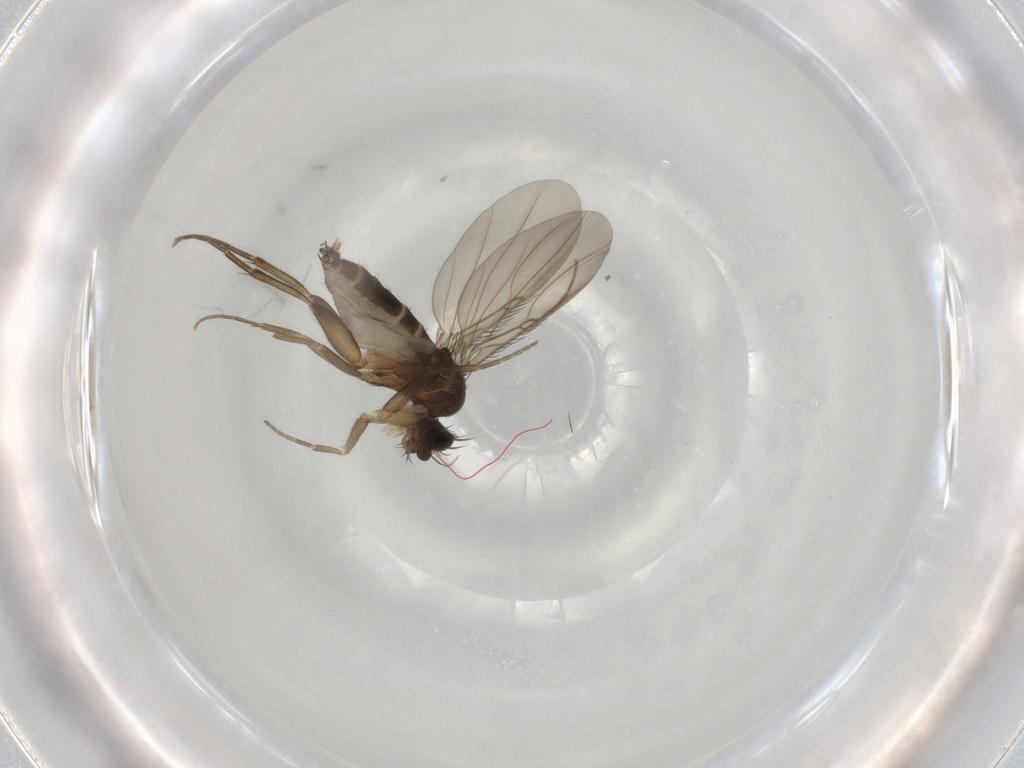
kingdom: Animalia
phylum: Arthropoda
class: Insecta
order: Diptera
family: Phoridae
